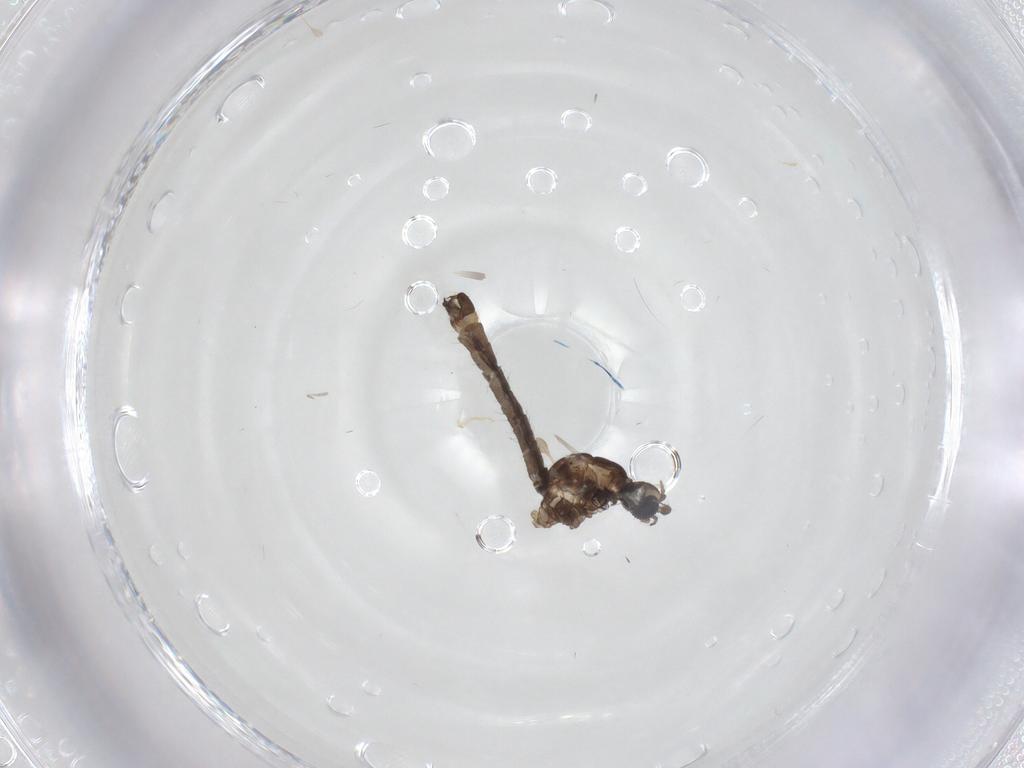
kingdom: Animalia
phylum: Arthropoda
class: Insecta
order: Diptera
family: Limoniidae
